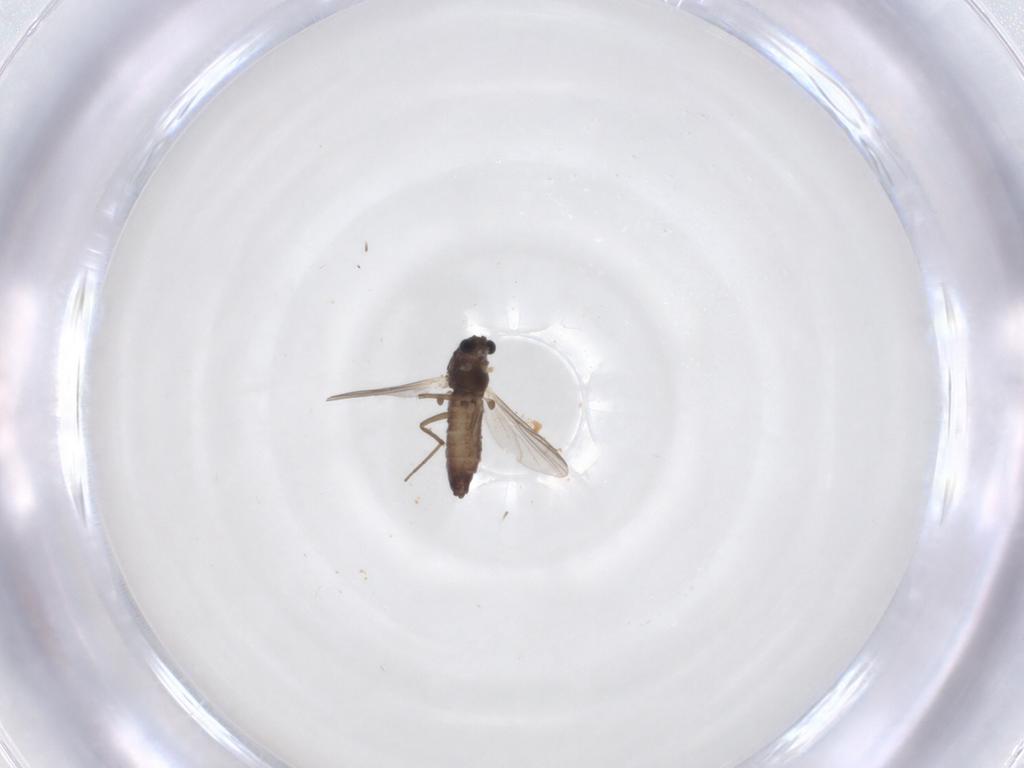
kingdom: Animalia
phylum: Arthropoda
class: Insecta
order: Diptera
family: Chironomidae
